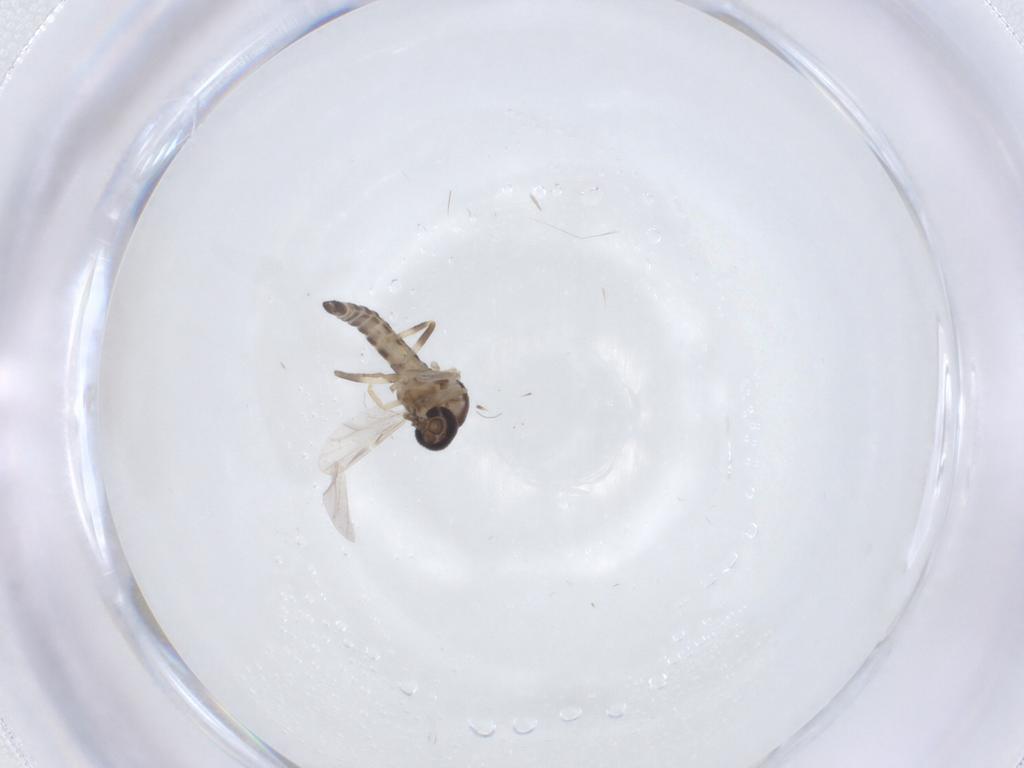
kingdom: Animalia
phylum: Arthropoda
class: Insecta
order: Diptera
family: Ceratopogonidae
